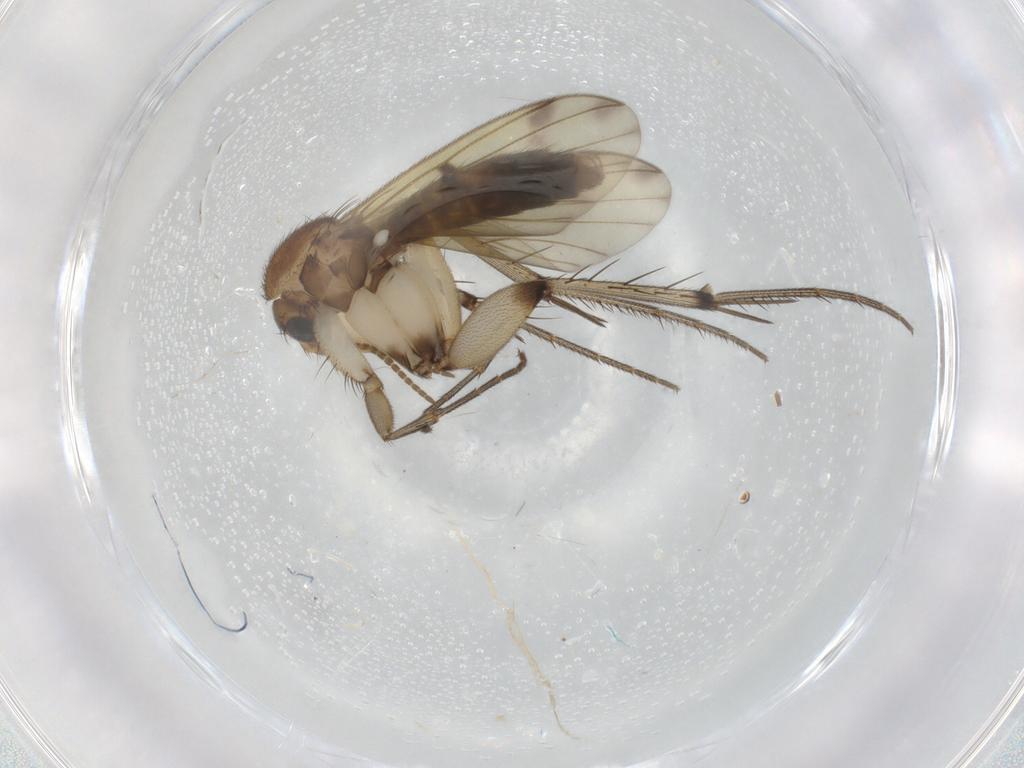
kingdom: Animalia
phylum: Arthropoda
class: Insecta
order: Diptera
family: Mycetophilidae
